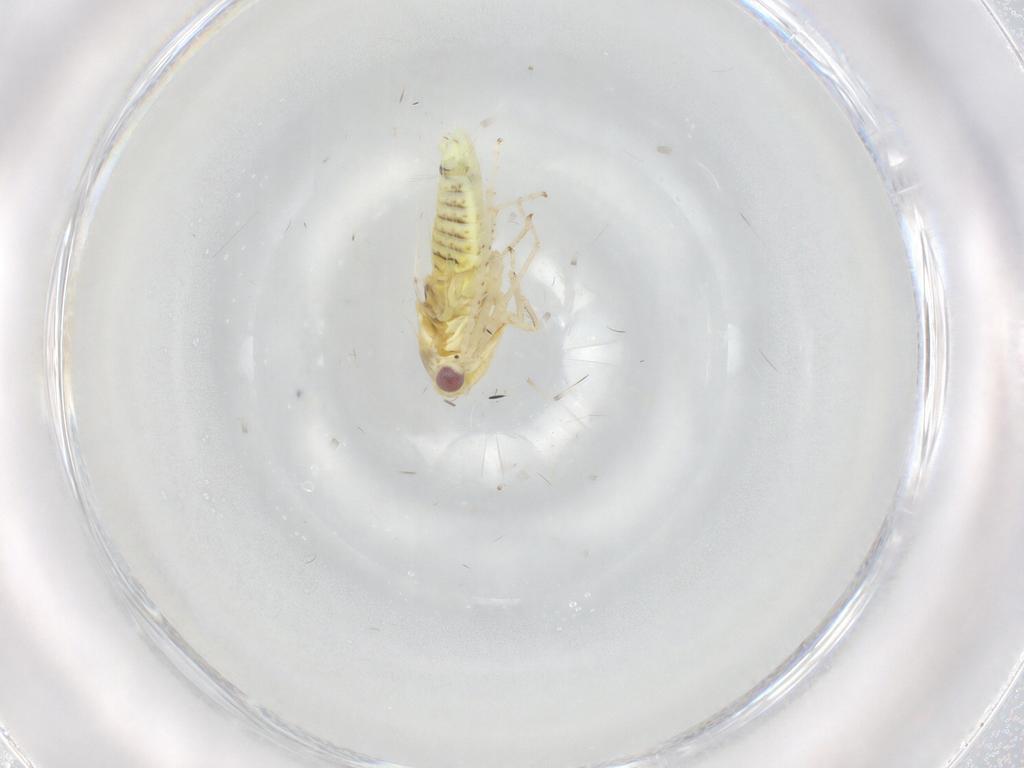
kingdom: Animalia
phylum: Arthropoda
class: Insecta
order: Hemiptera
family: Cicadellidae
